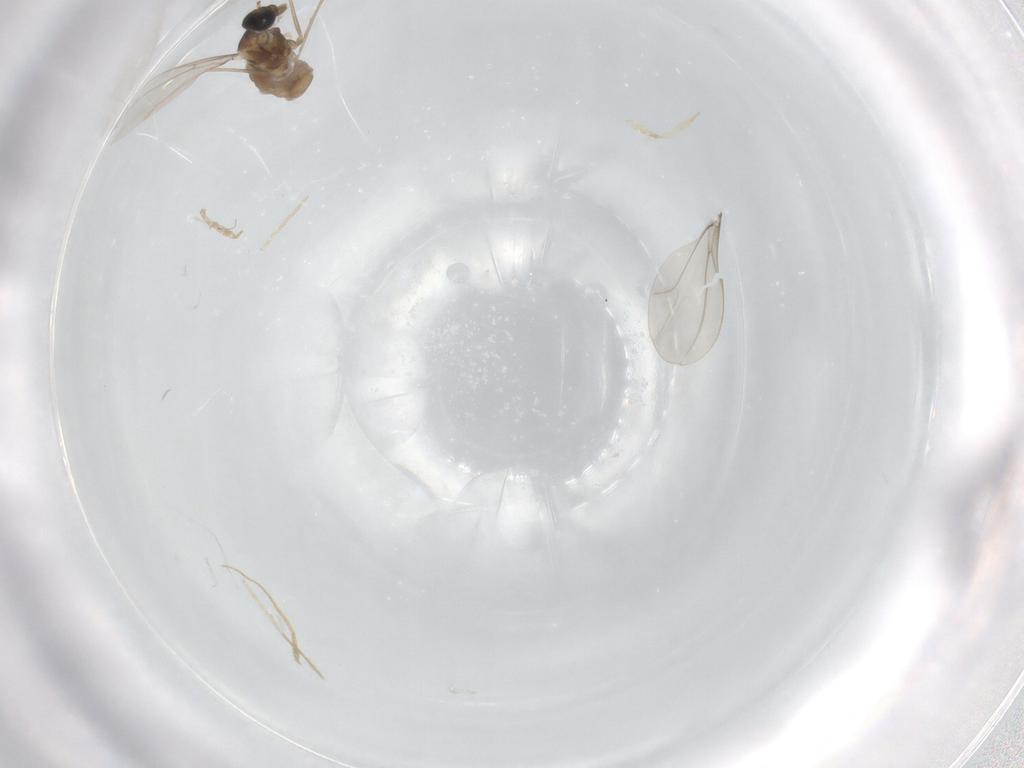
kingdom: Animalia
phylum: Arthropoda
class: Insecta
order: Diptera
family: Cecidomyiidae
